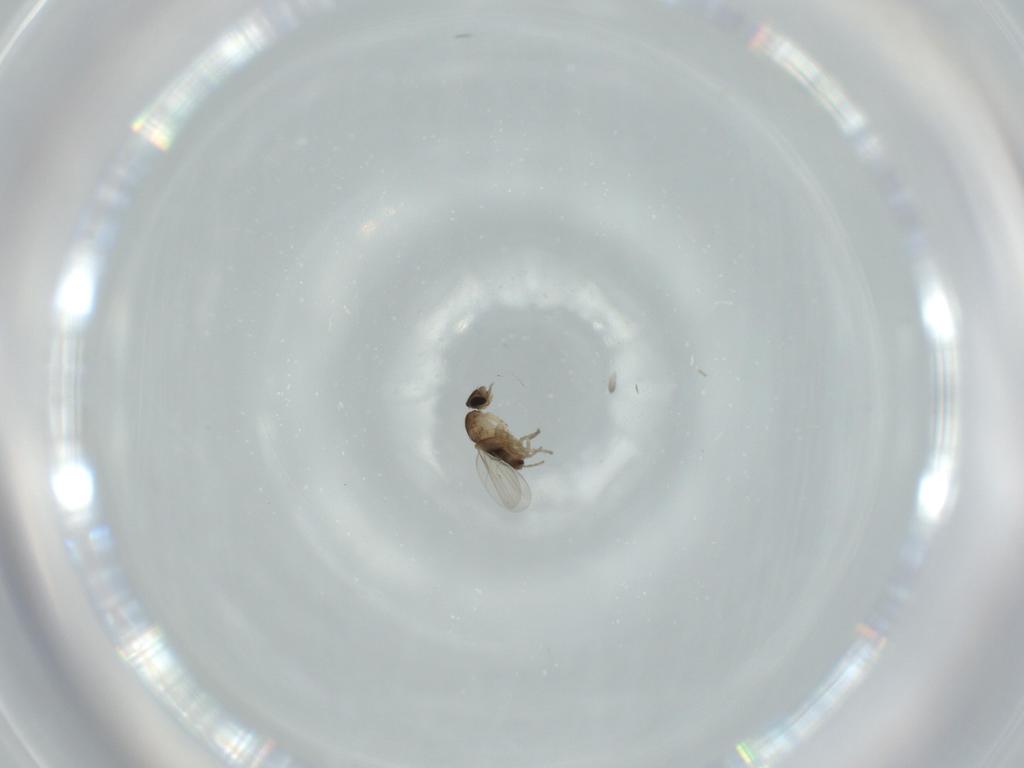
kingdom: Animalia
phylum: Arthropoda
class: Insecta
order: Diptera
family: Phoridae
